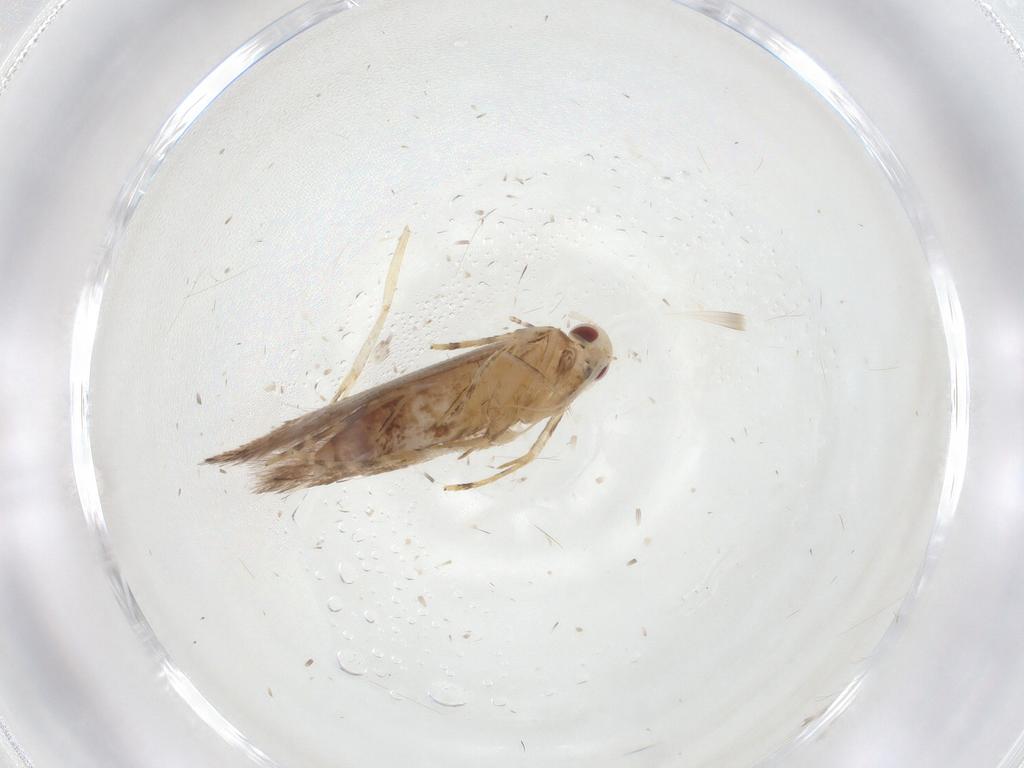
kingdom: Animalia
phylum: Arthropoda
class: Insecta
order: Lepidoptera
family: Cosmopterigidae
